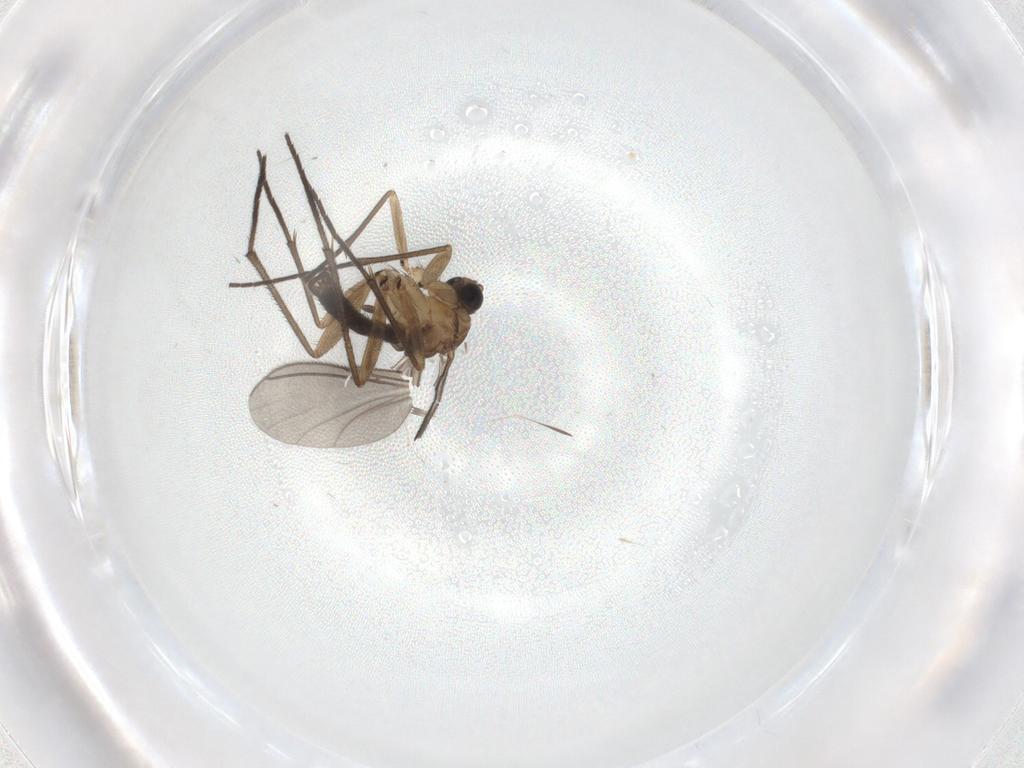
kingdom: Animalia
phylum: Arthropoda
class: Insecta
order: Diptera
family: Sciaridae
